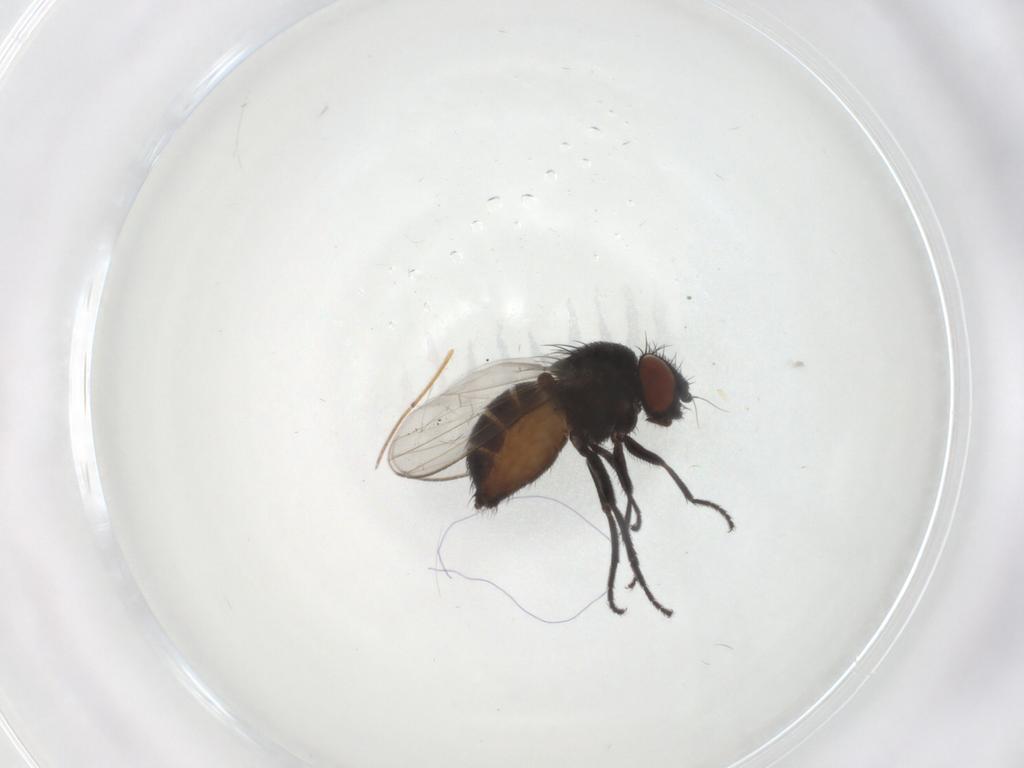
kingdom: Animalia
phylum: Arthropoda
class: Insecta
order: Diptera
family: Milichiidae
